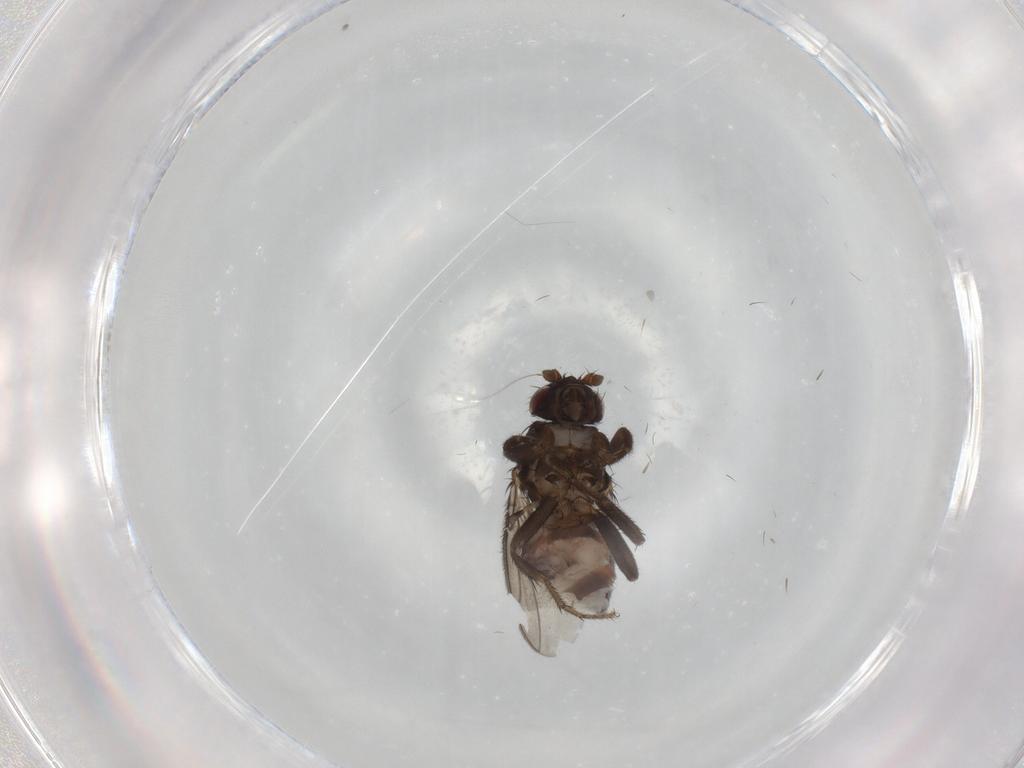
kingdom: Animalia
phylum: Arthropoda
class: Insecta
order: Diptera
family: Sphaeroceridae
